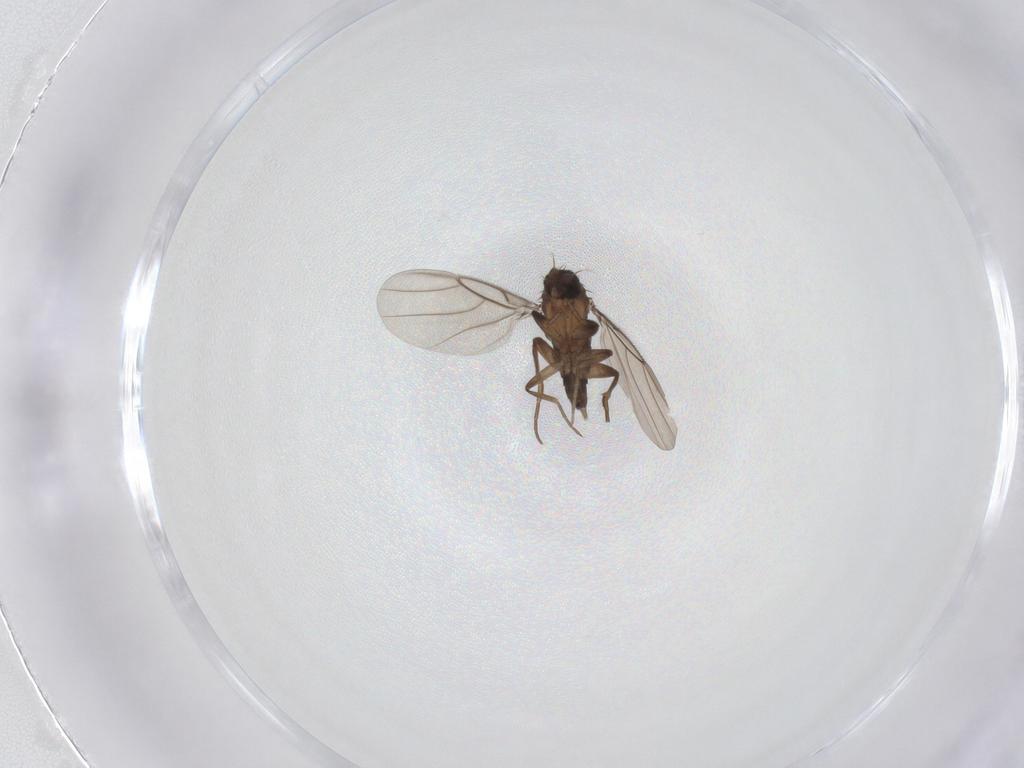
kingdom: Animalia
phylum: Arthropoda
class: Insecta
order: Diptera
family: Phoridae
